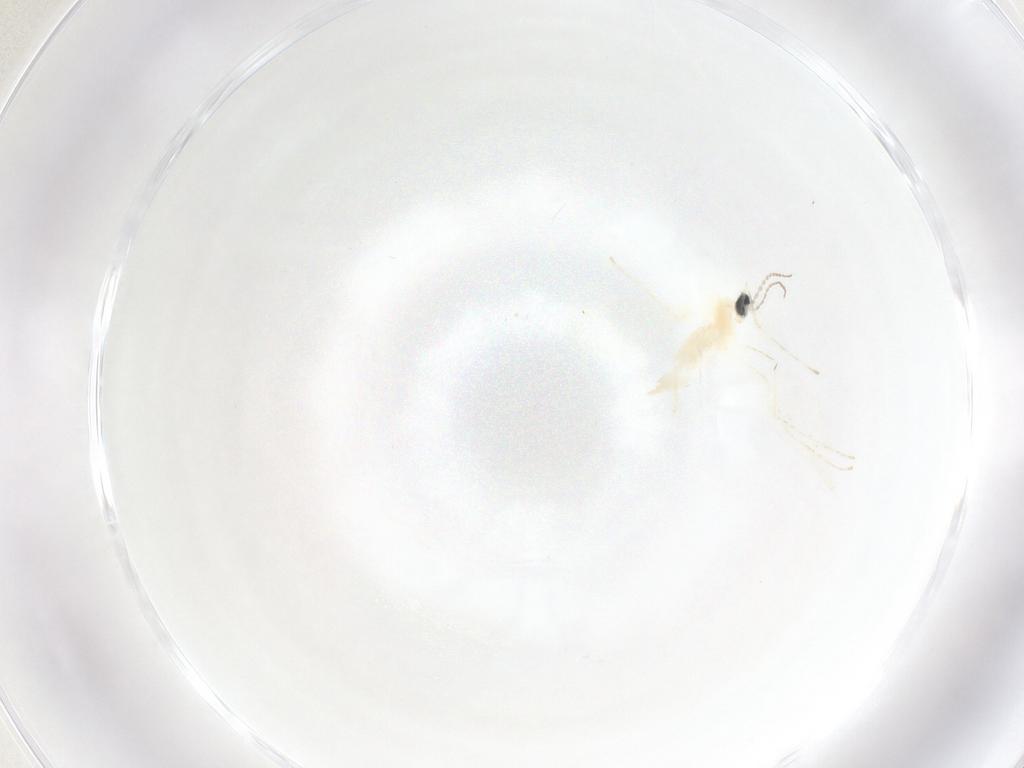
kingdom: Animalia
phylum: Arthropoda
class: Insecta
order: Diptera
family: Cecidomyiidae
